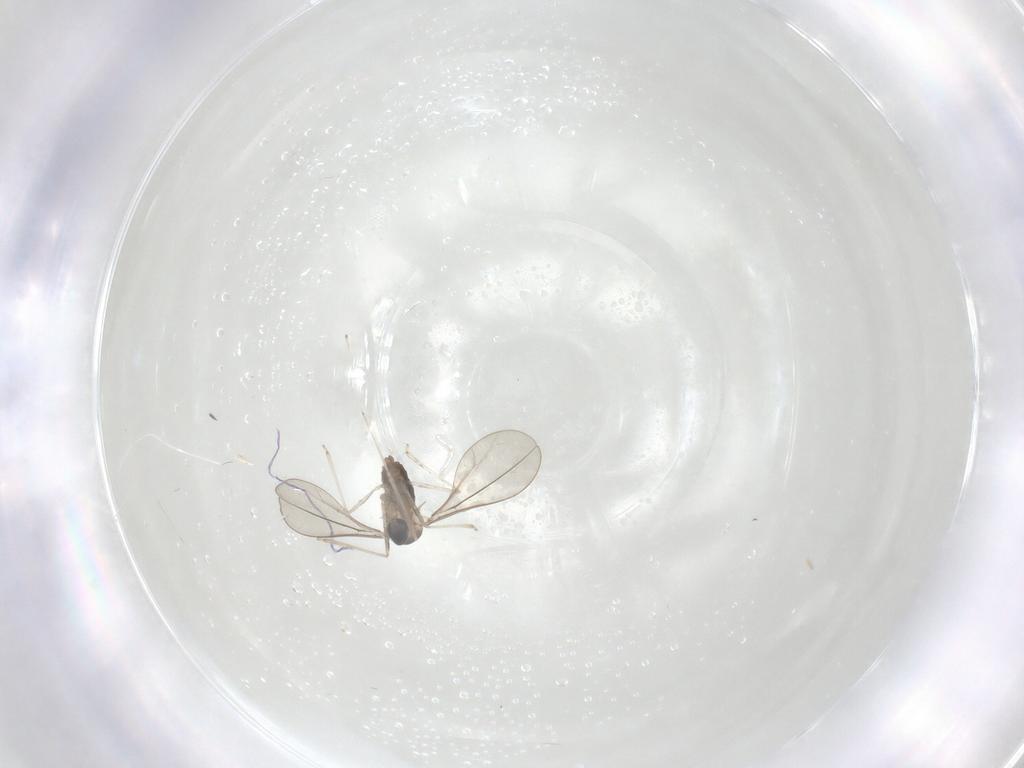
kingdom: Animalia
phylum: Arthropoda
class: Insecta
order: Diptera
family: Cecidomyiidae
